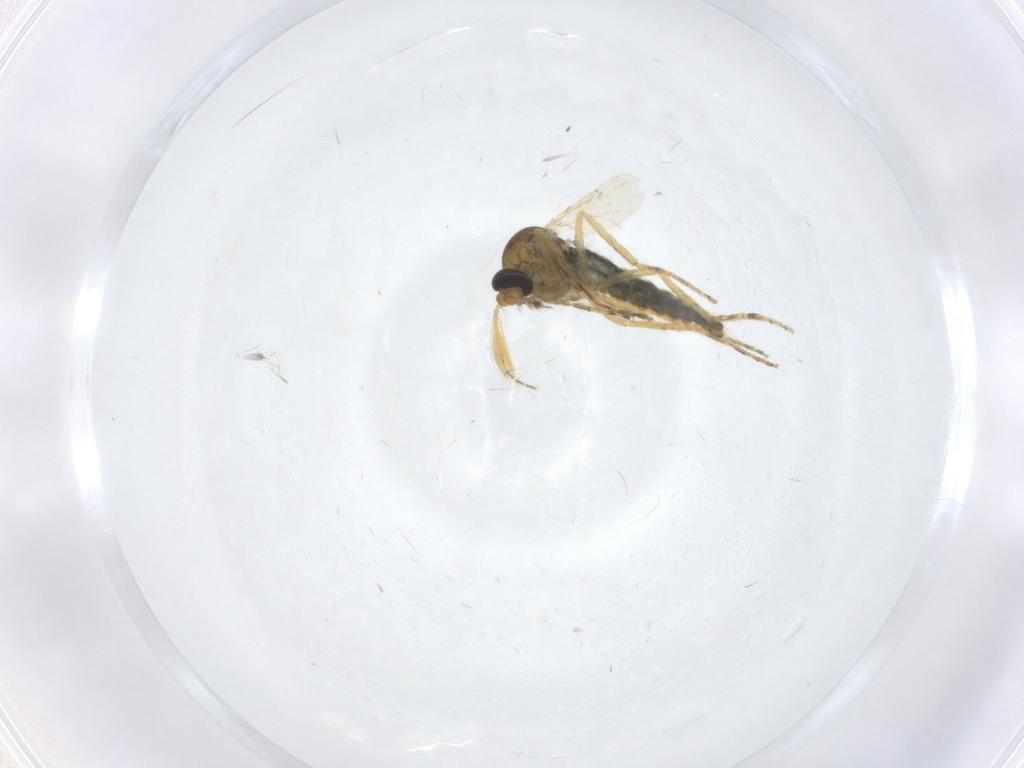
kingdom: Animalia
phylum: Arthropoda
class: Insecta
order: Diptera
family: Ceratopogonidae
